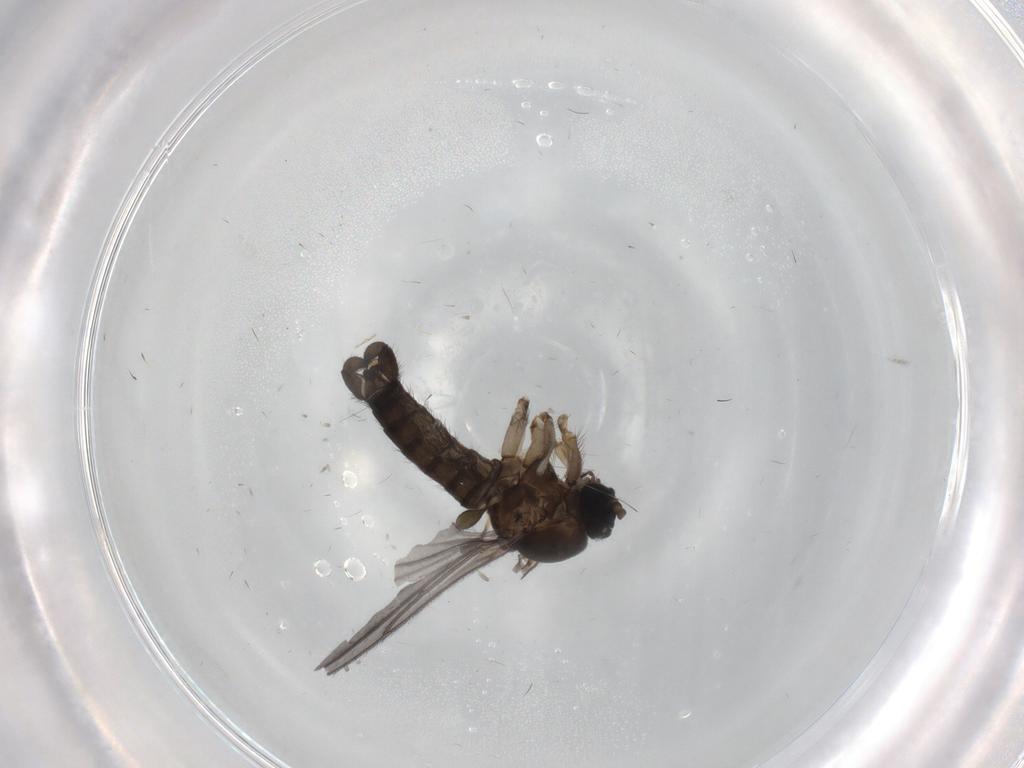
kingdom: Animalia
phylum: Arthropoda
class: Insecta
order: Diptera
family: Sciaridae
